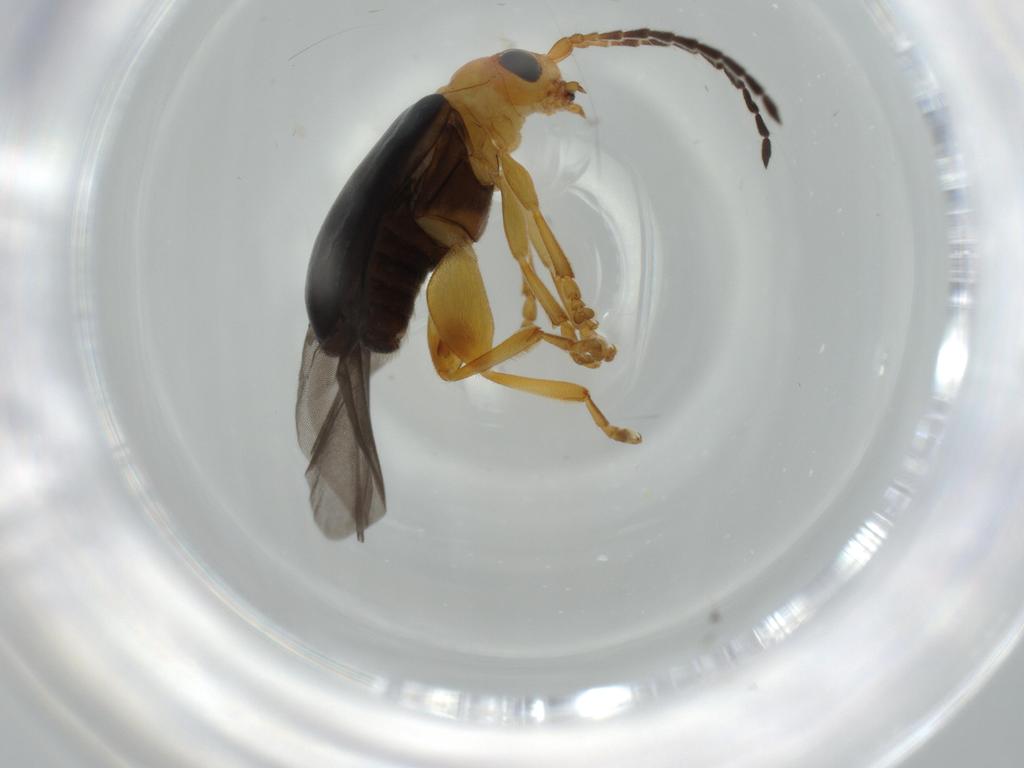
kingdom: Animalia
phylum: Arthropoda
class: Insecta
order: Coleoptera
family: Chrysomelidae
